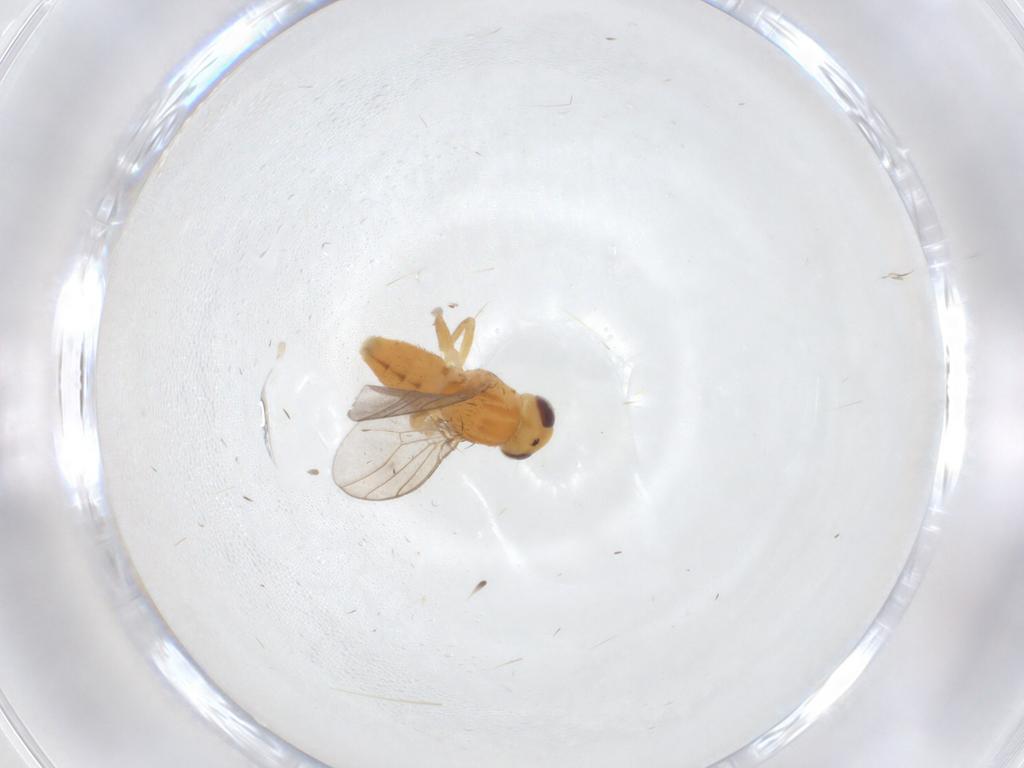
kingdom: Animalia
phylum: Arthropoda
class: Insecta
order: Diptera
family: Chloropidae
